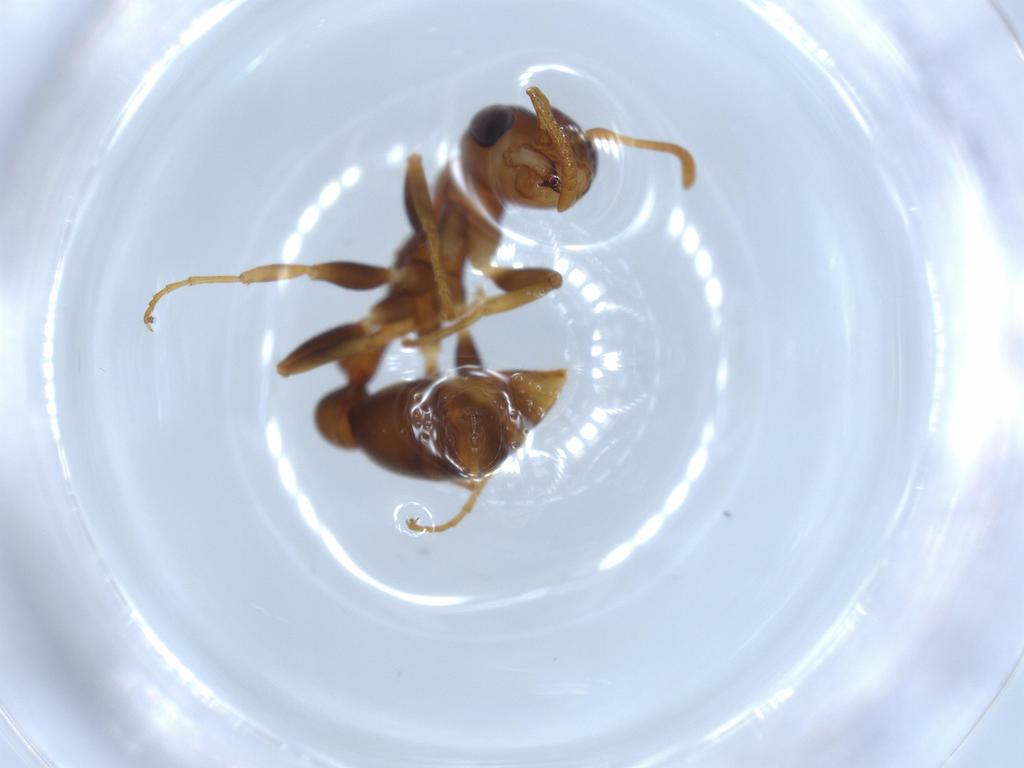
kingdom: Animalia
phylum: Arthropoda
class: Insecta
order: Hymenoptera
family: Formicidae
